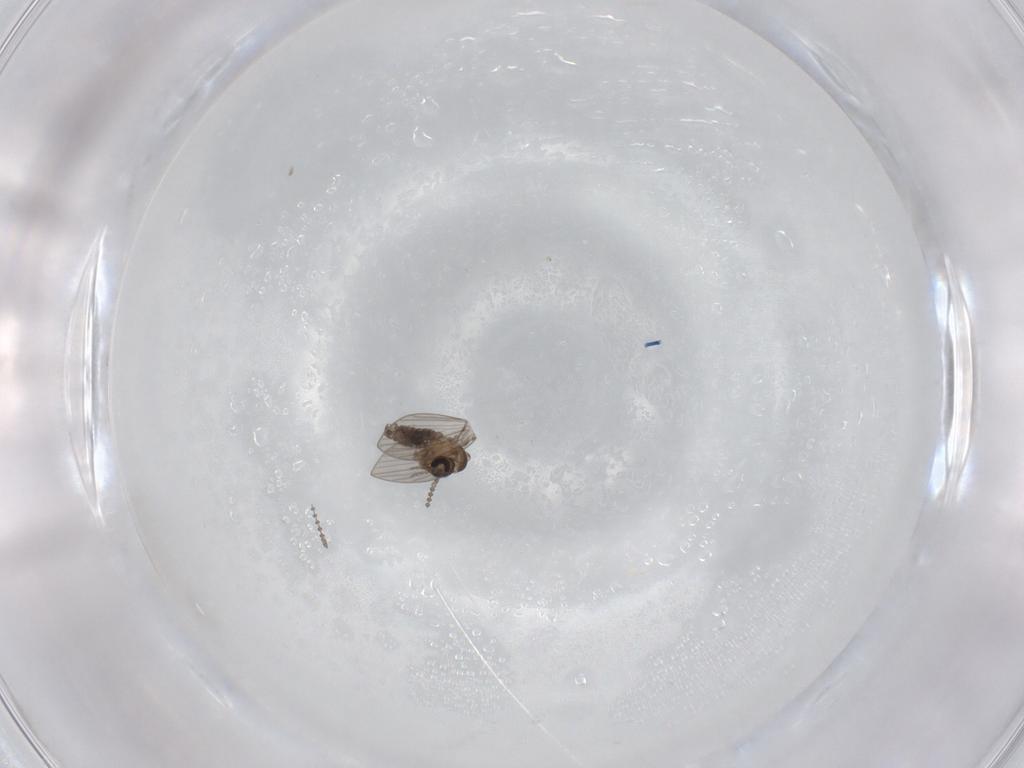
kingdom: Animalia
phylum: Arthropoda
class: Insecta
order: Diptera
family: Psychodidae
